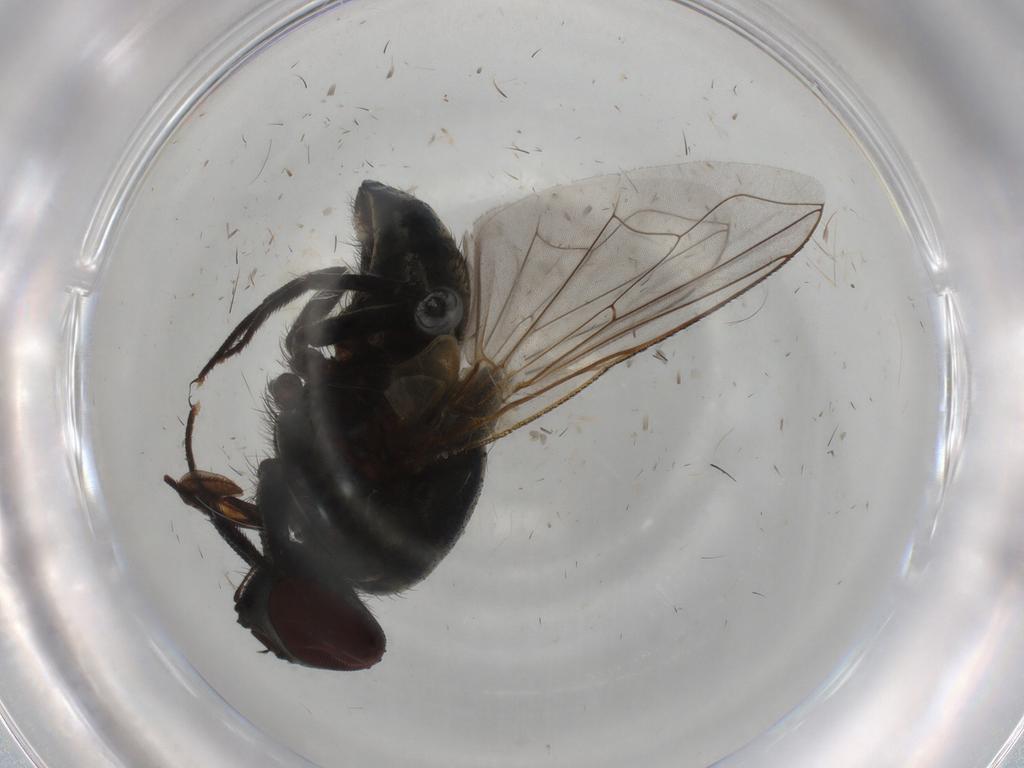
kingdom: Animalia
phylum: Arthropoda
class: Insecta
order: Diptera
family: Muscidae
